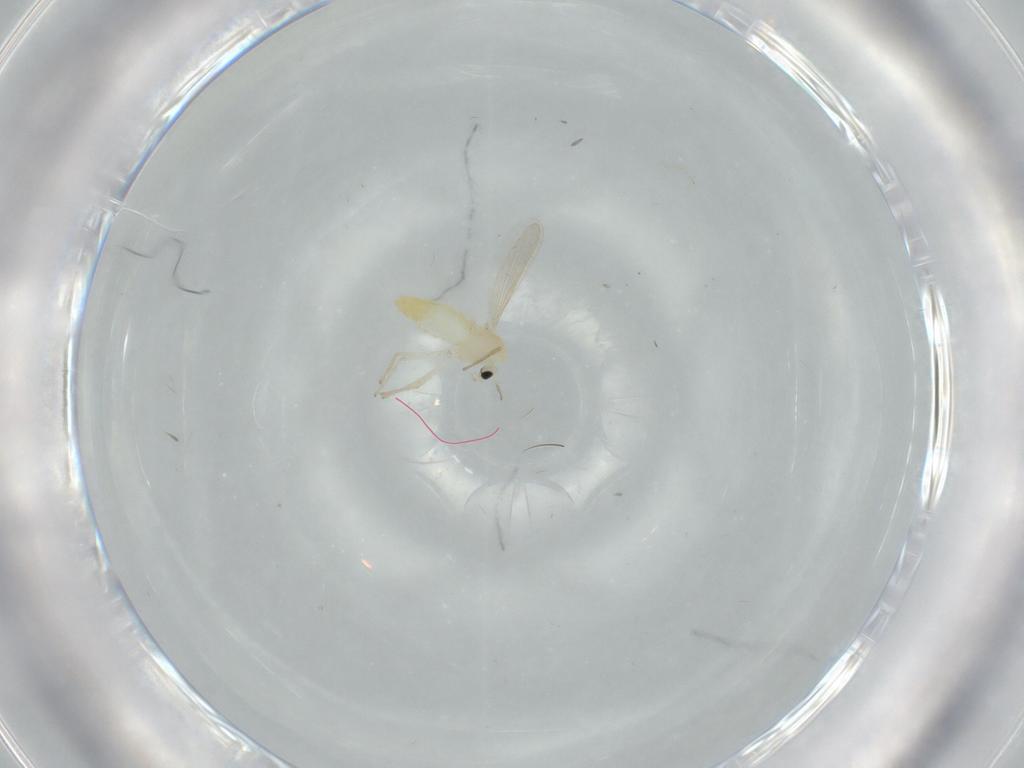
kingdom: Animalia
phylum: Arthropoda
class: Insecta
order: Diptera
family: Chironomidae
